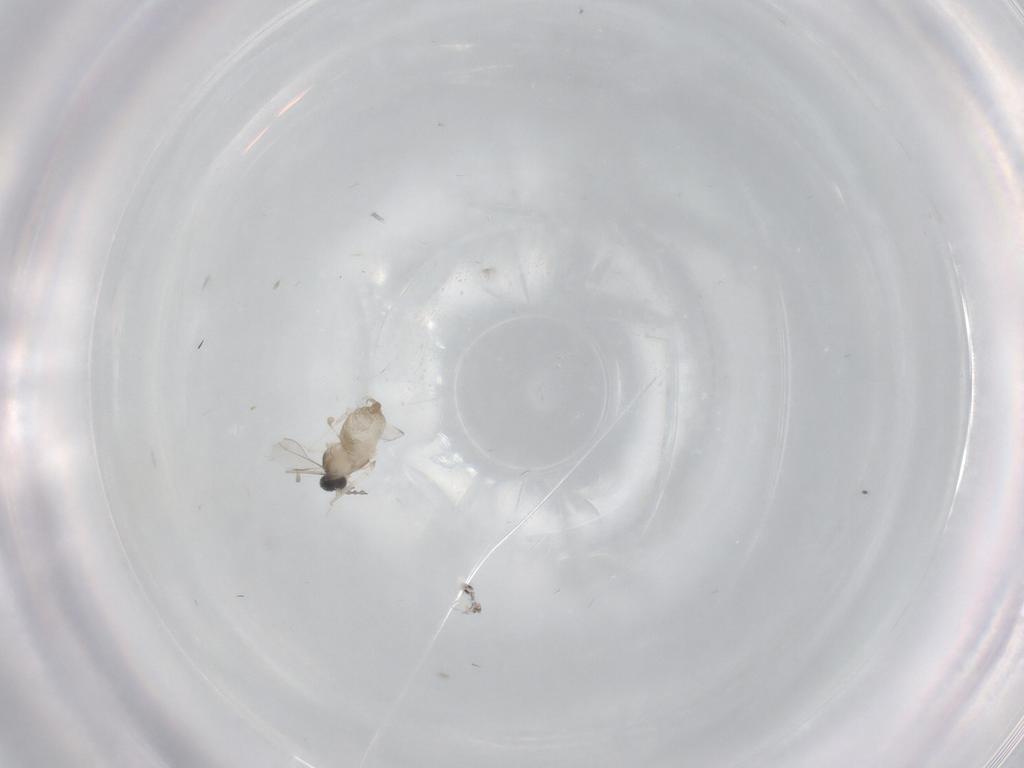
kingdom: Animalia
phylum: Arthropoda
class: Insecta
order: Diptera
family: Cecidomyiidae
